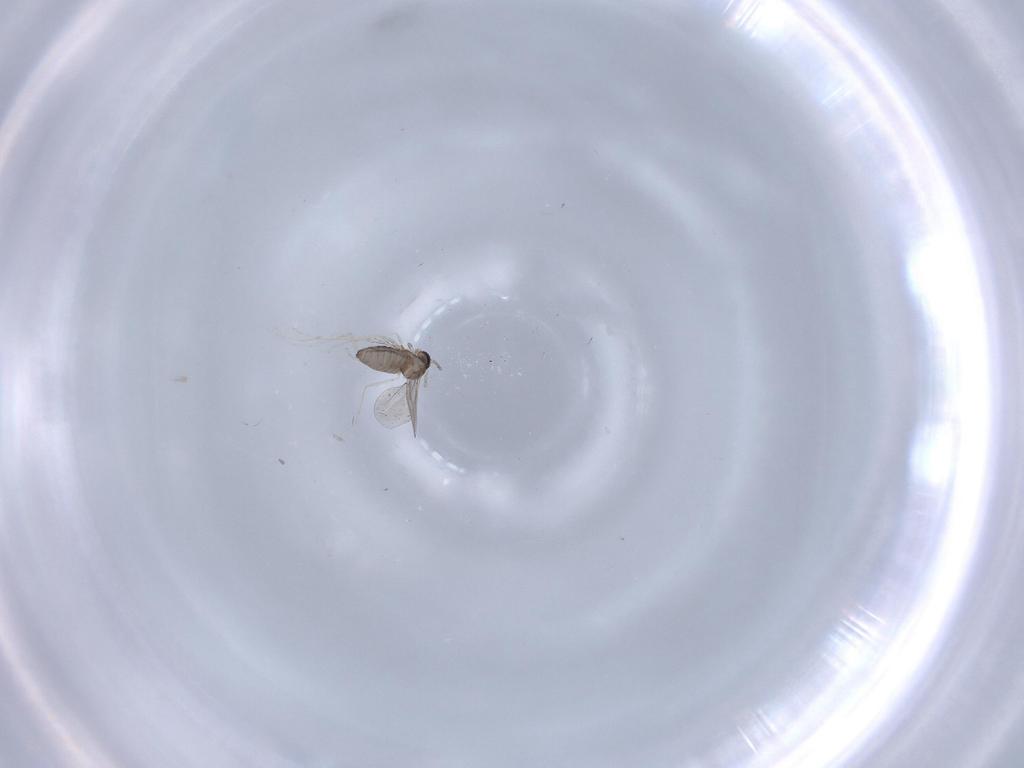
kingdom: Animalia
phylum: Arthropoda
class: Insecta
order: Diptera
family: Cecidomyiidae
